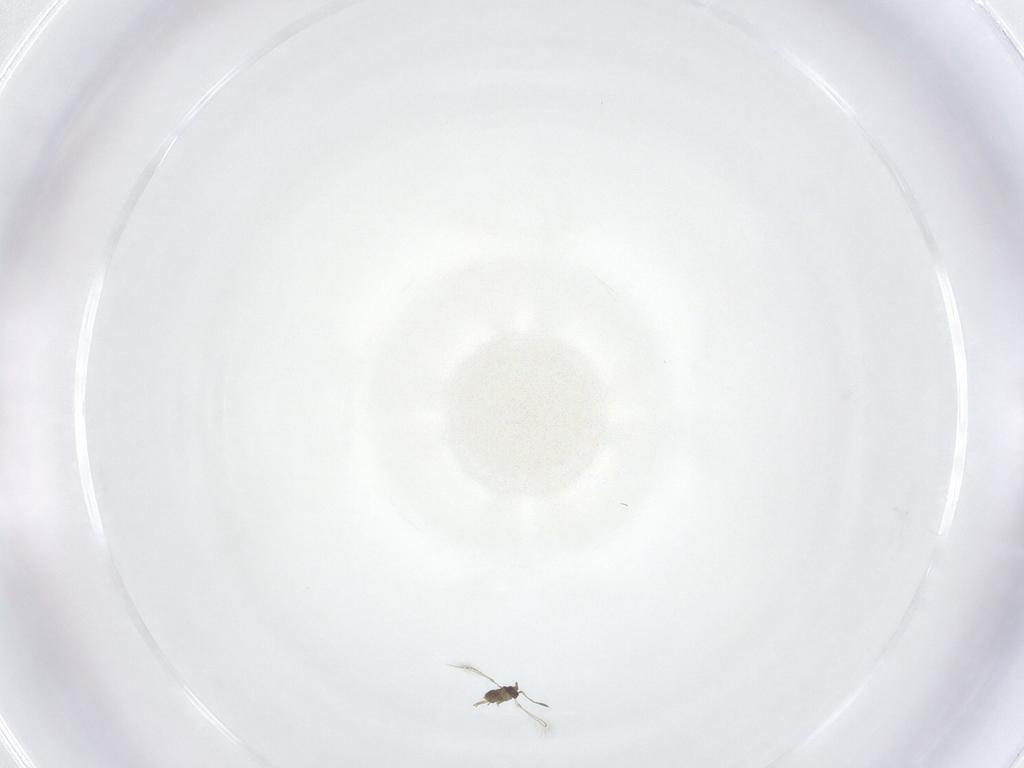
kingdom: Animalia
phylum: Arthropoda
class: Insecta
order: Hymenoptera
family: Mymaridae
